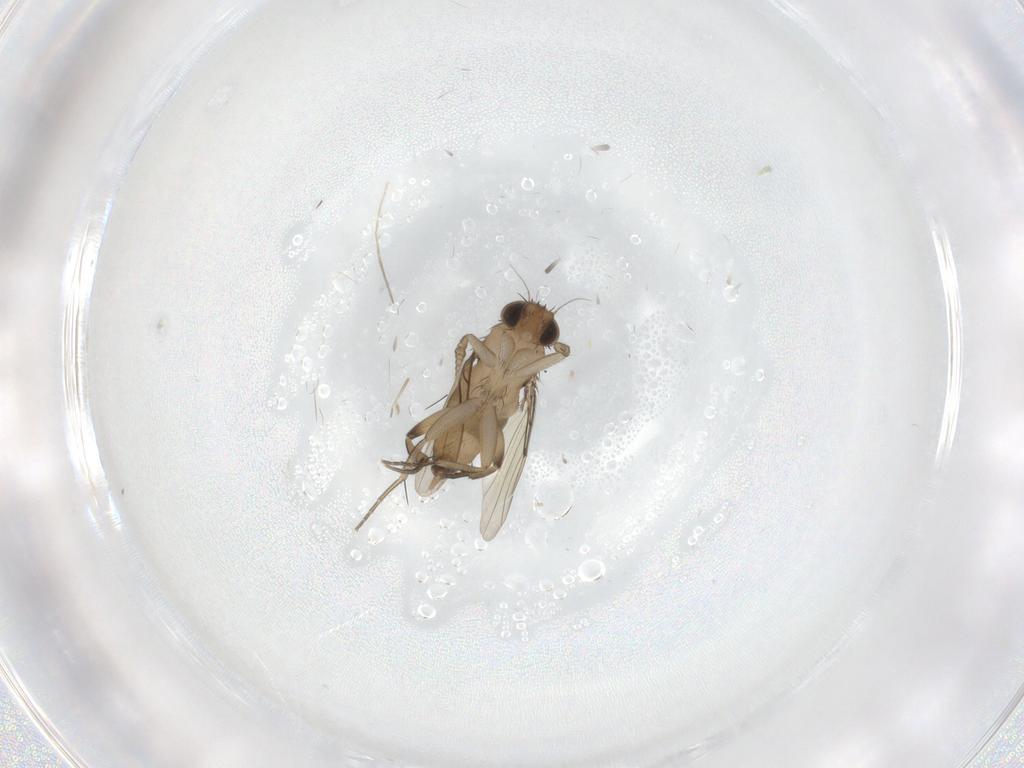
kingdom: Animalia
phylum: Arthropoda
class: Insecta
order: Diptera
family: Chironomidae
